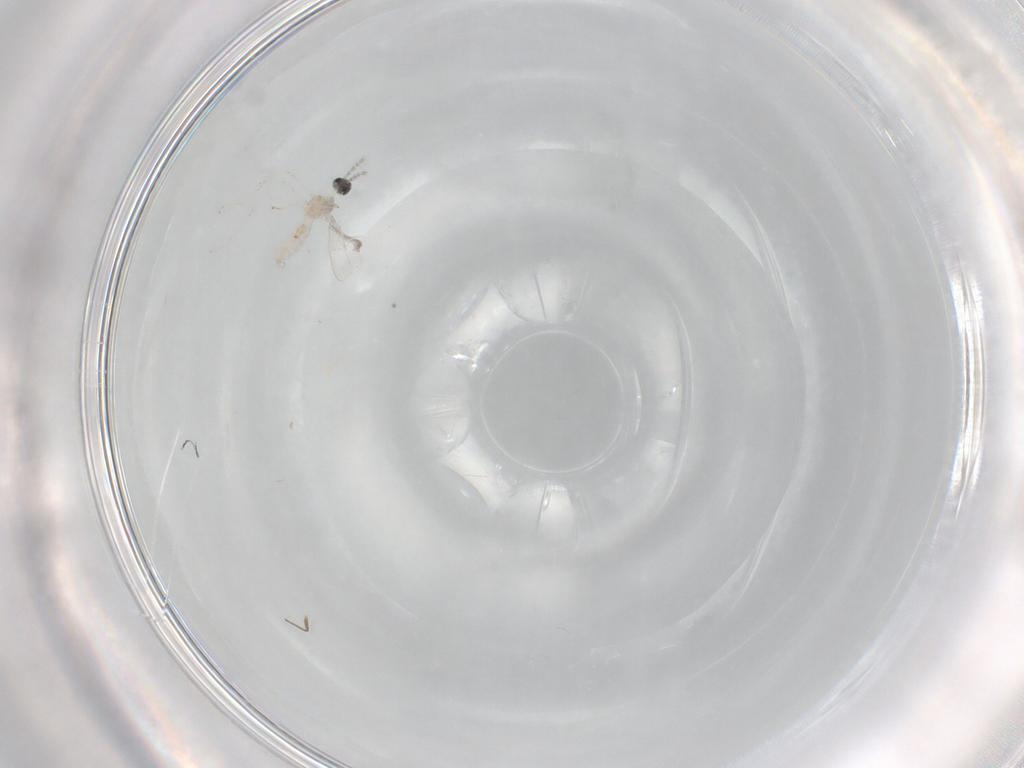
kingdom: Animalia
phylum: Arthropoda
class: Insecta
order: Diptera
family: Cecidomyiidae
